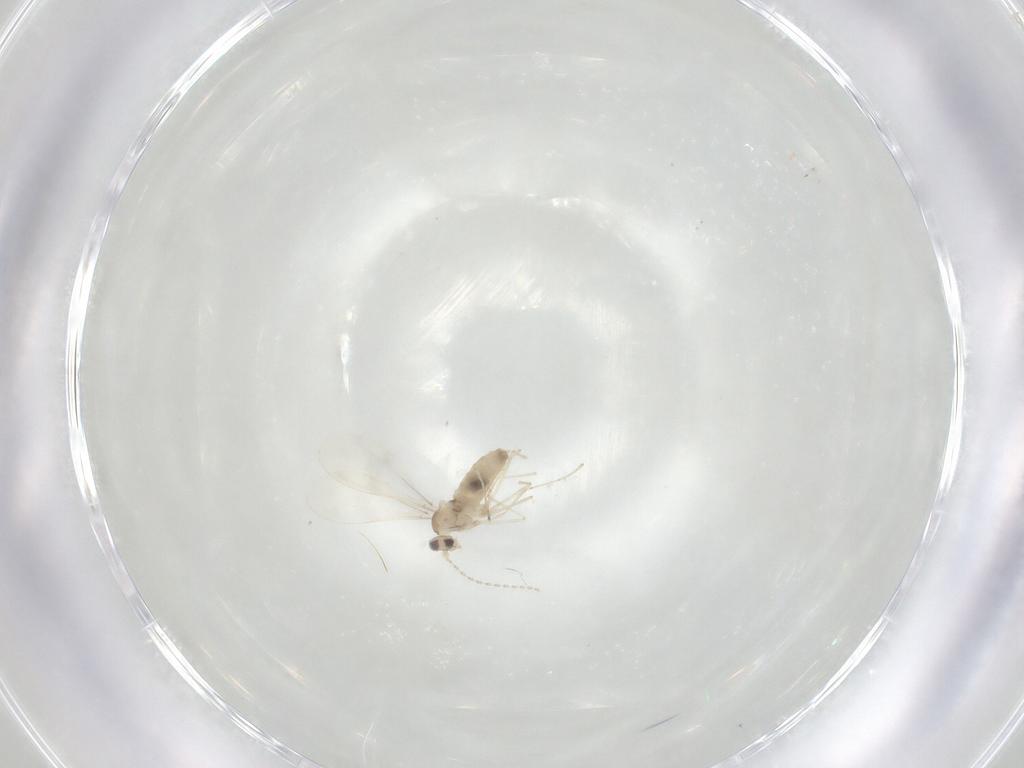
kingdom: Animalia
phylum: Arthropoda
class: Insecta
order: Diptera
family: Cecidomyiidae
